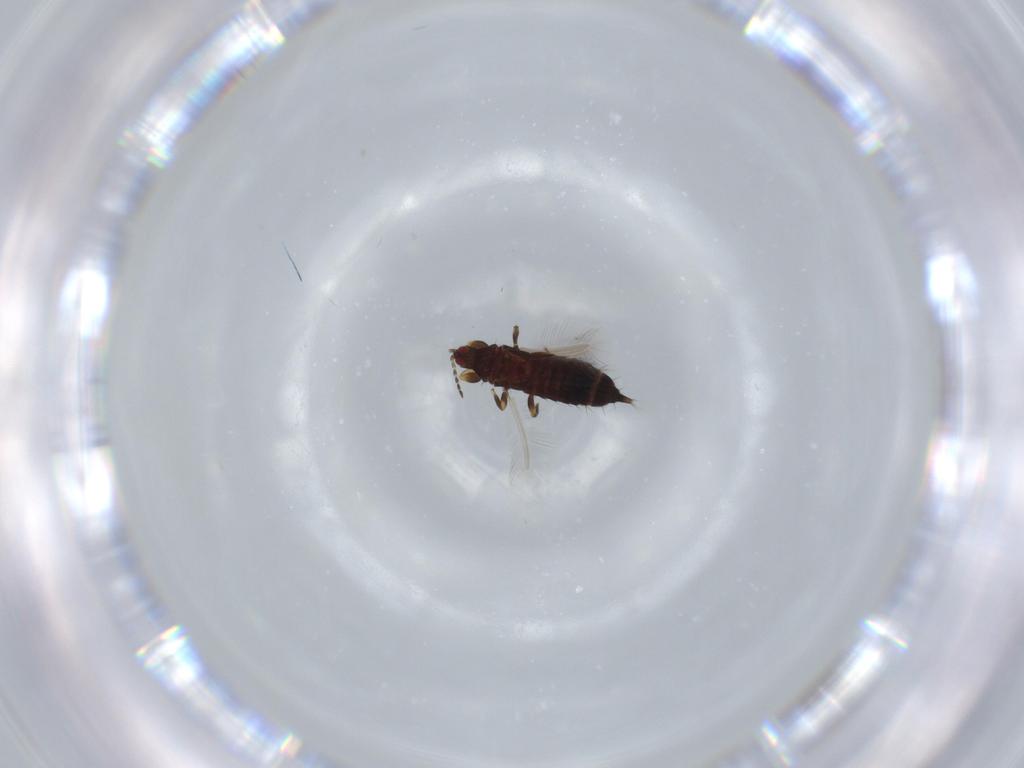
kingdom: Animalia
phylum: Arthropoda
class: Insecta
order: Thysanoptera
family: Phlaeothripidae
